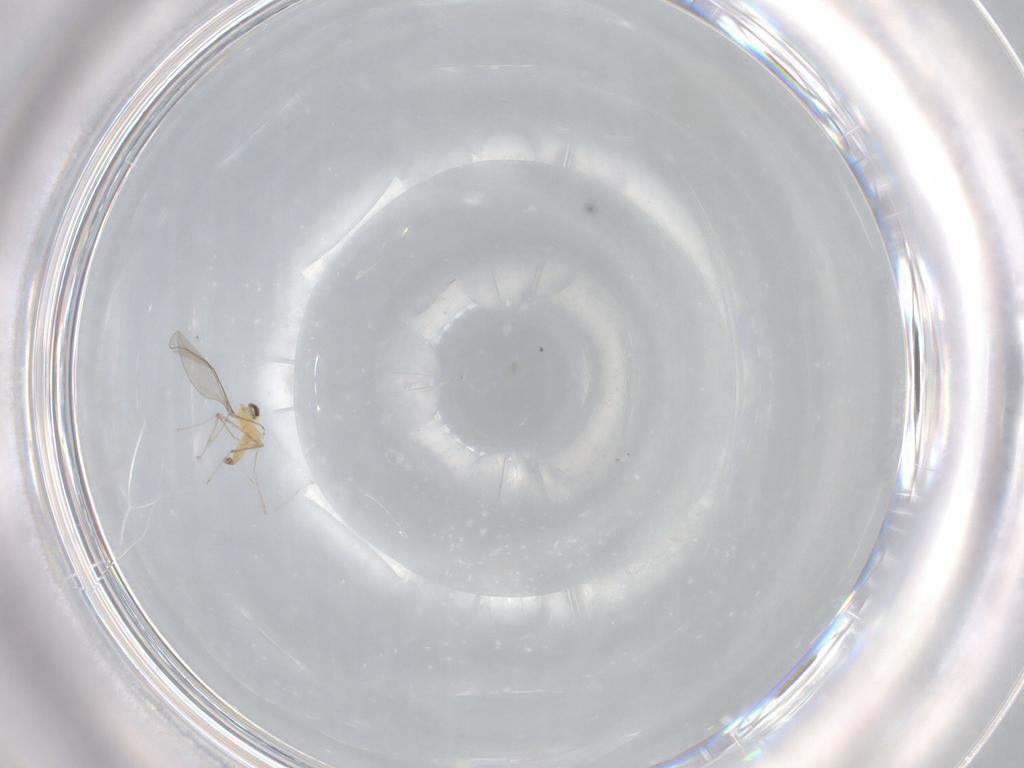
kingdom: Animalia
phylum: Arthropoda
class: Insecta
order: Diptera
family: Cecidomyiidae
